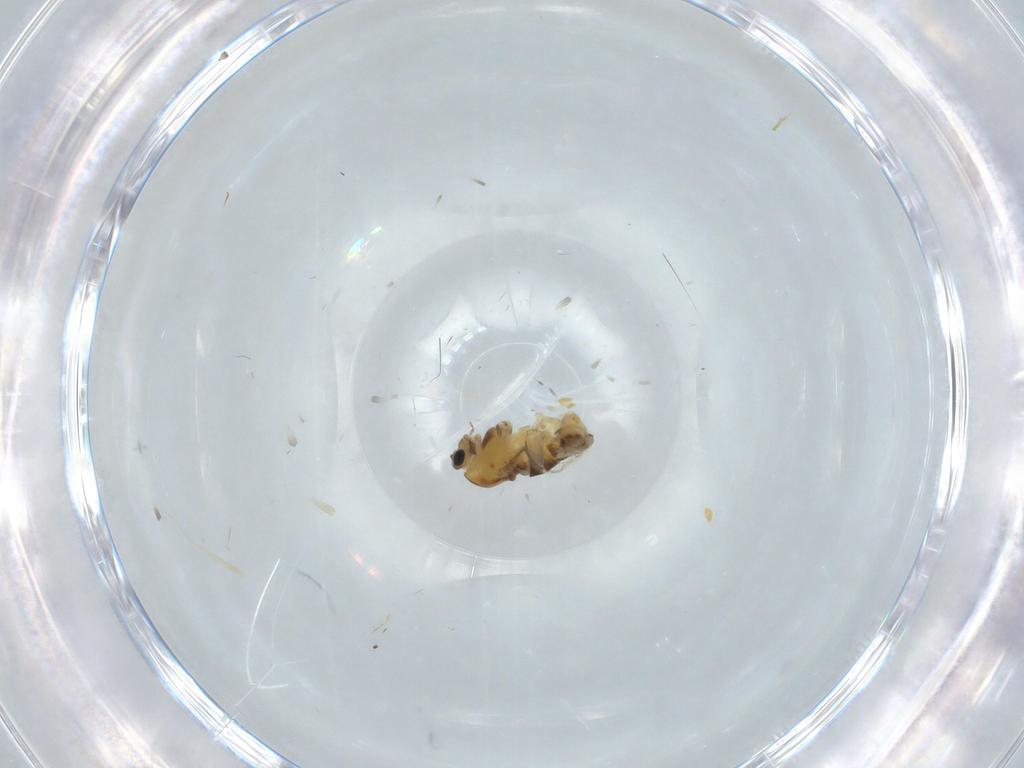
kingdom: Animalia
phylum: Arthropoda
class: Insecta
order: Diptera
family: Chironomidae
